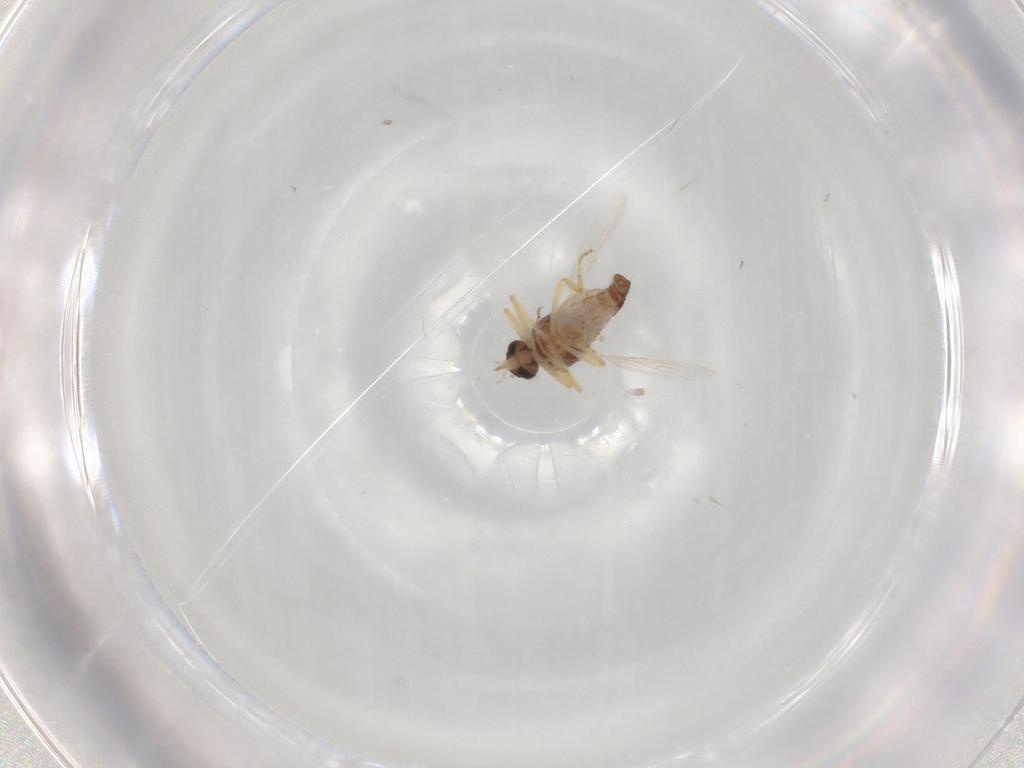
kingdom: Animalia
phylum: Arthropoda
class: Insecta
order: Diptera
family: Ceratopogonidae
